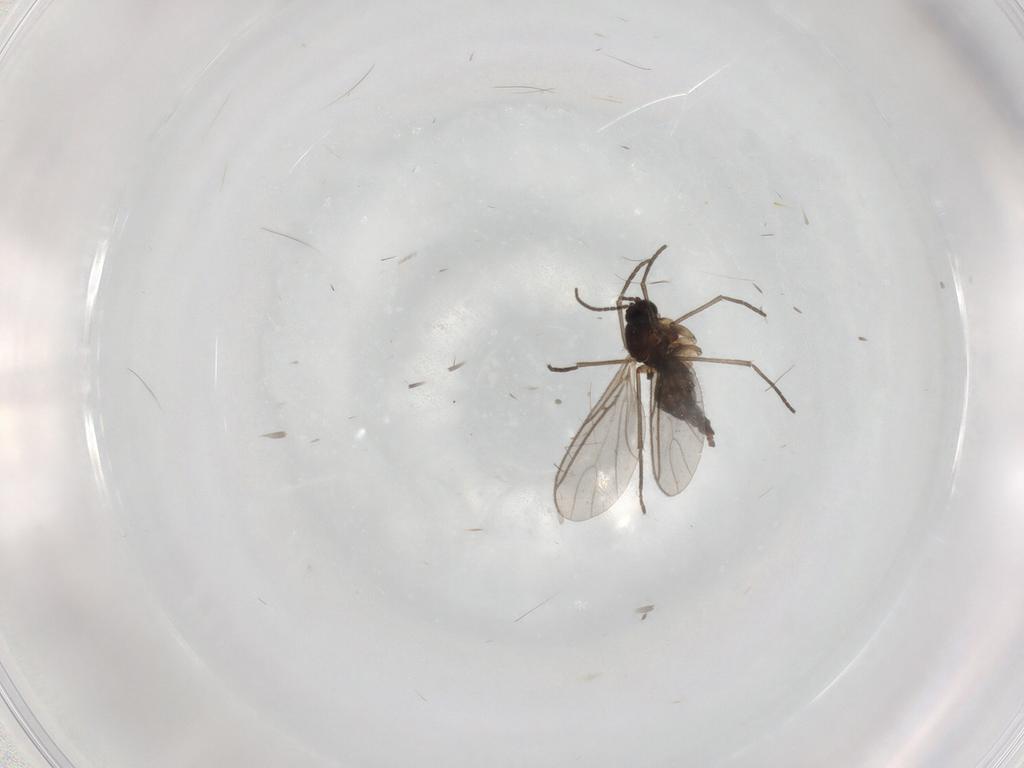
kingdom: Animalia
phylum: Arthropoda
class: Insecta
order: Diptera
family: Sciaridae
